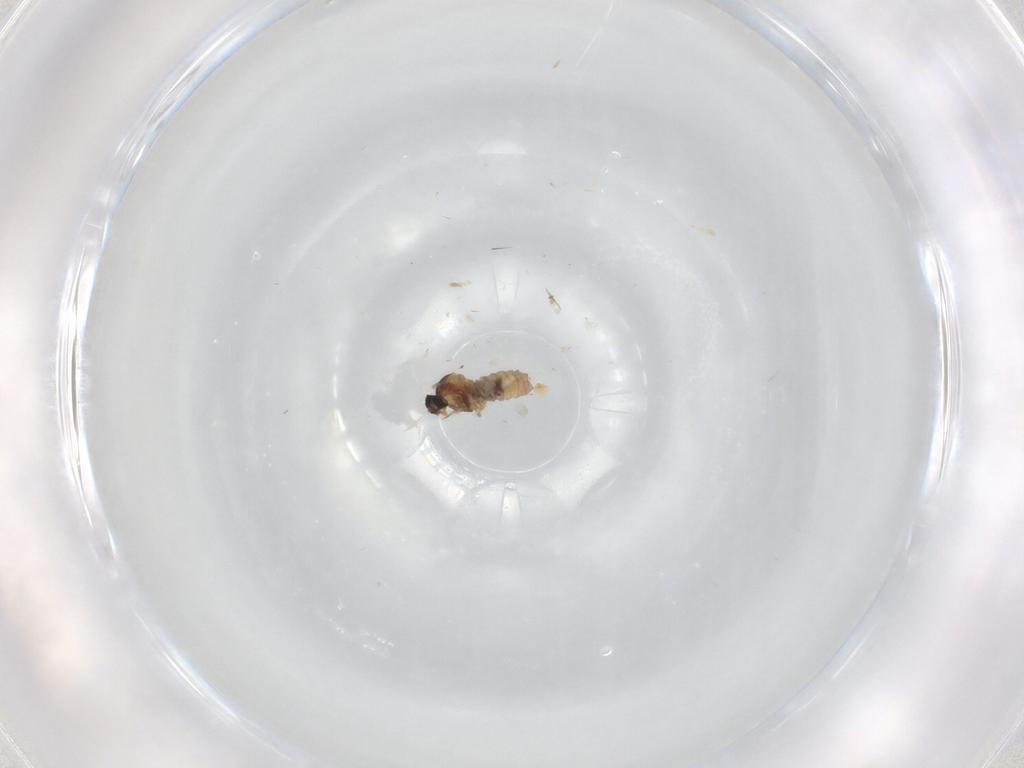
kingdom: Animalia
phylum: Arthropoda
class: Insecta
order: Diptera
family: Cecidomyiidae
